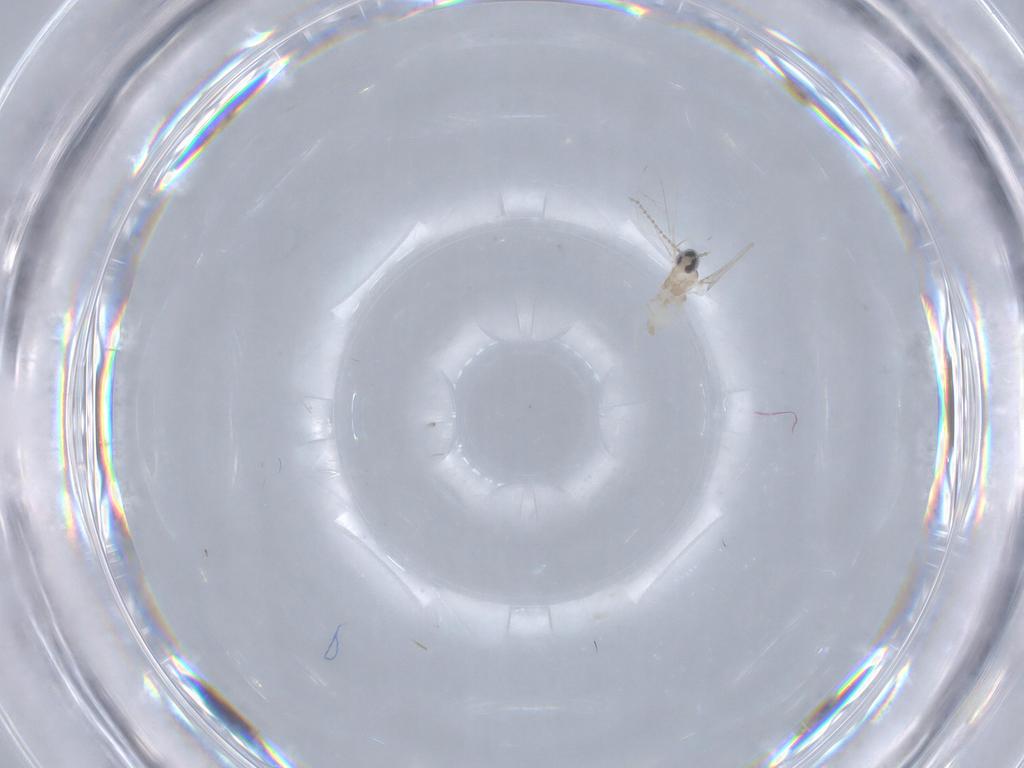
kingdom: Animalia
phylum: Arthropoda
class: Insecta
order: Diptera
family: Cecidomyiidae
